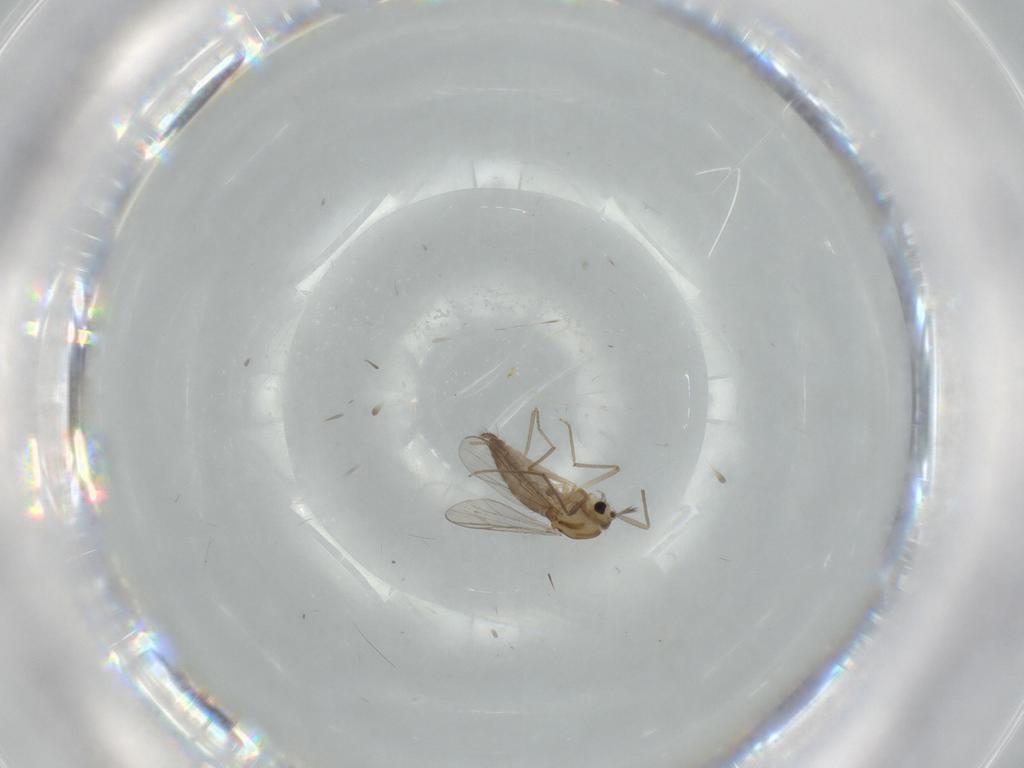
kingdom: Animalia
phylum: Arthropoda
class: Insecta
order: Diptera
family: Chironomidae
